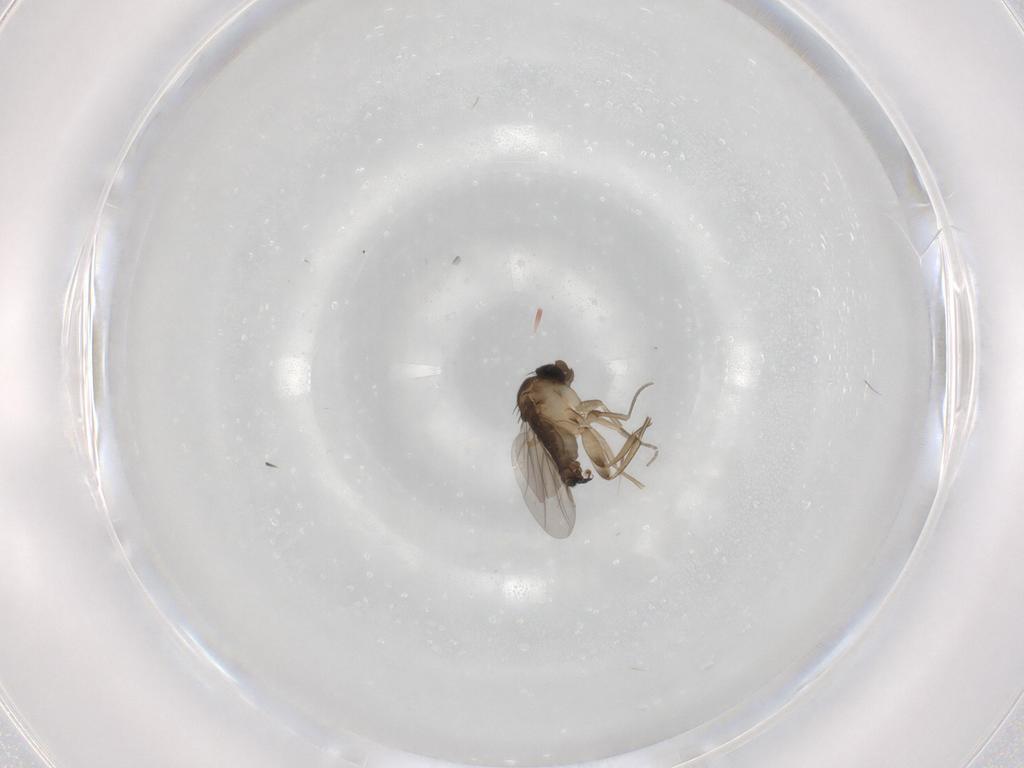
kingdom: Animalia
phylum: Arthropoda
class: Insecta
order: Diptera
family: Phoridae
